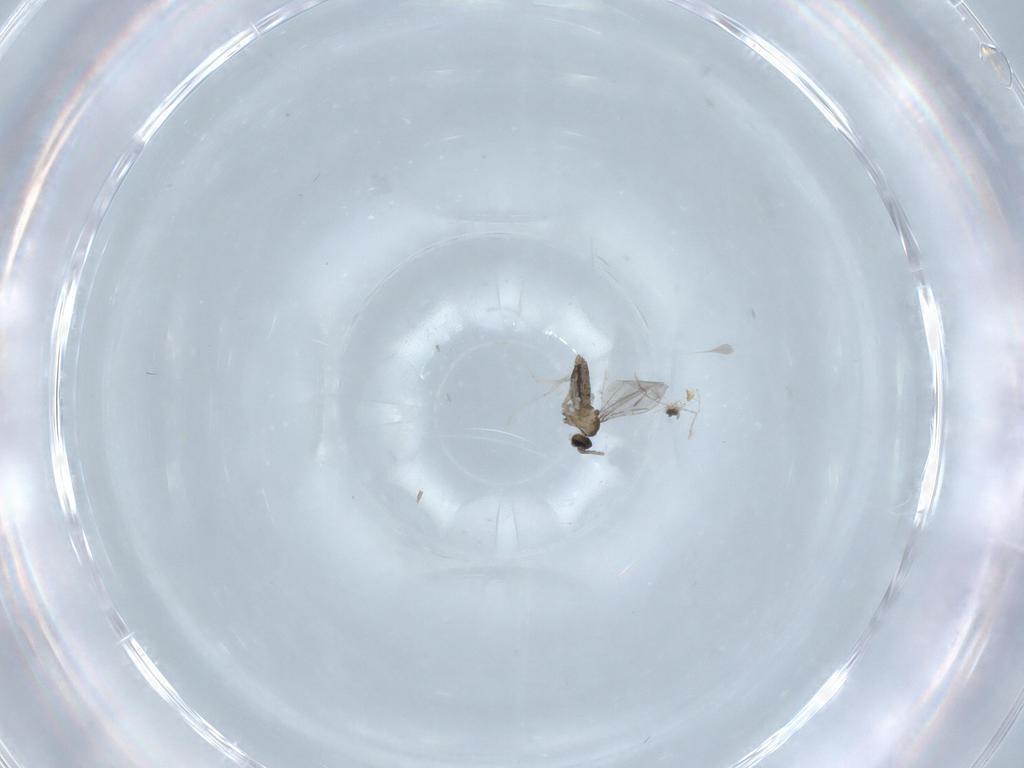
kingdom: Animalia
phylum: Arthropoda
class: Insecta
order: Diptera
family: Cecidomyiidae
